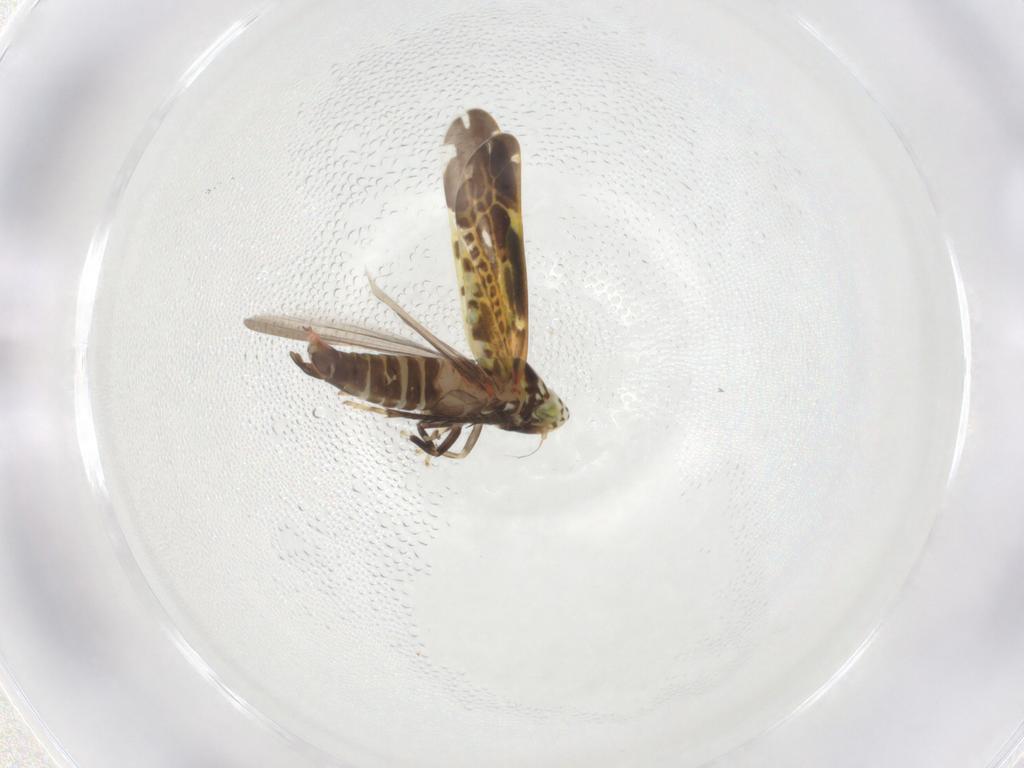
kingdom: Animalia
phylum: Arthropoda
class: Insecta
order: Hemiptera
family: Cicadellidae
